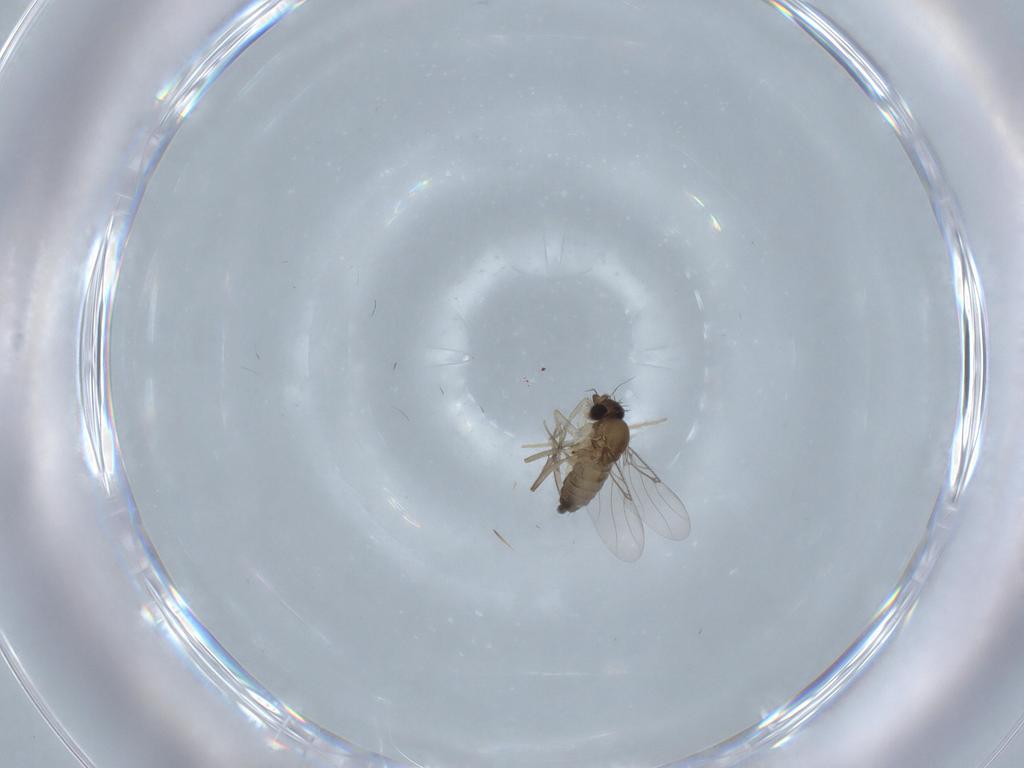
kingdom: Animalia
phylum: Arthropoda
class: Insecta
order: Diptera
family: Phoridae
